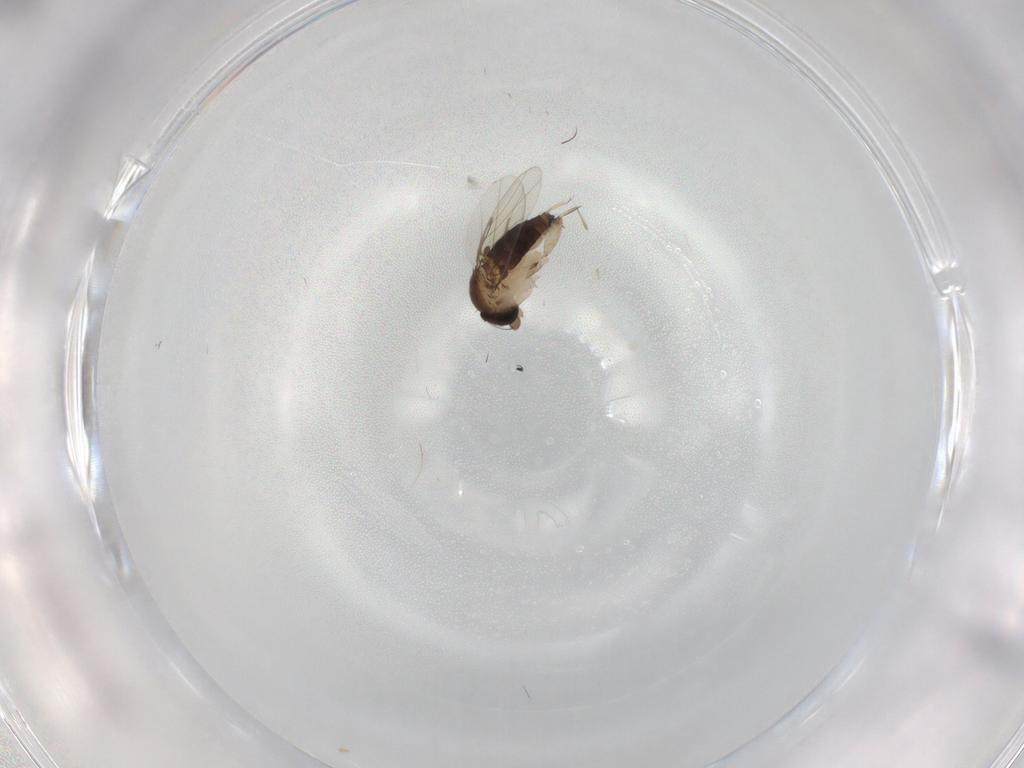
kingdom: Animalia
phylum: Arthropoda
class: Insecta
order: Diptera
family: Phoridae
